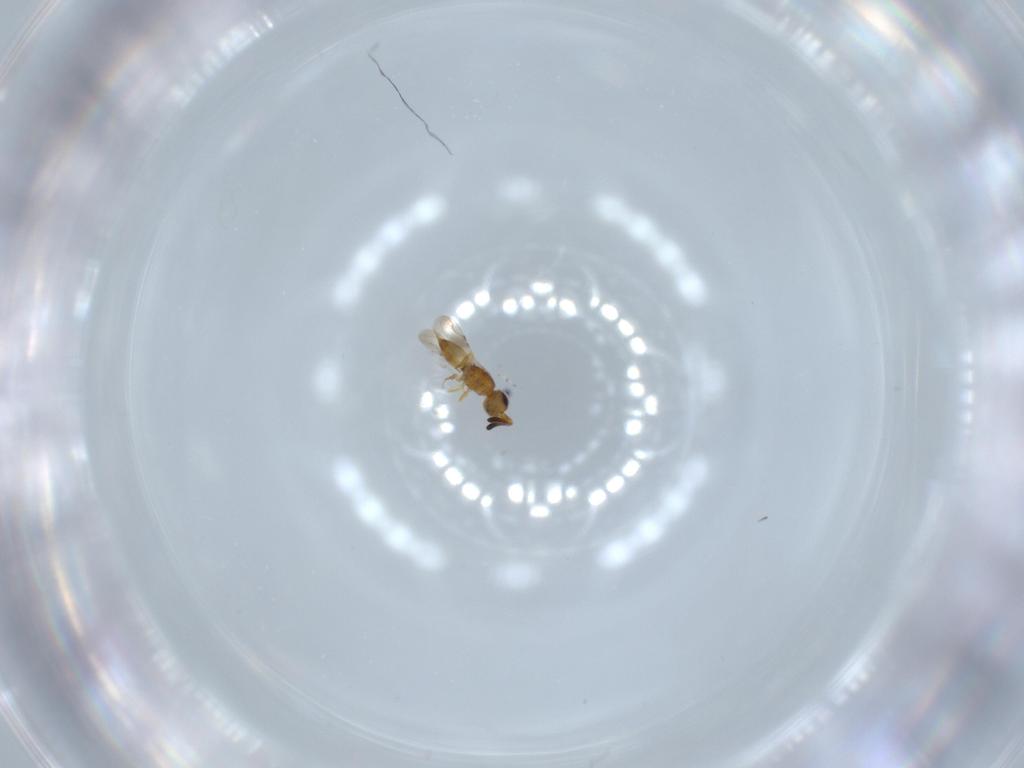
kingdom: Animalia
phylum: Arthropoda
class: Insecta
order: Hymenoptera
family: Ceraphronidae
